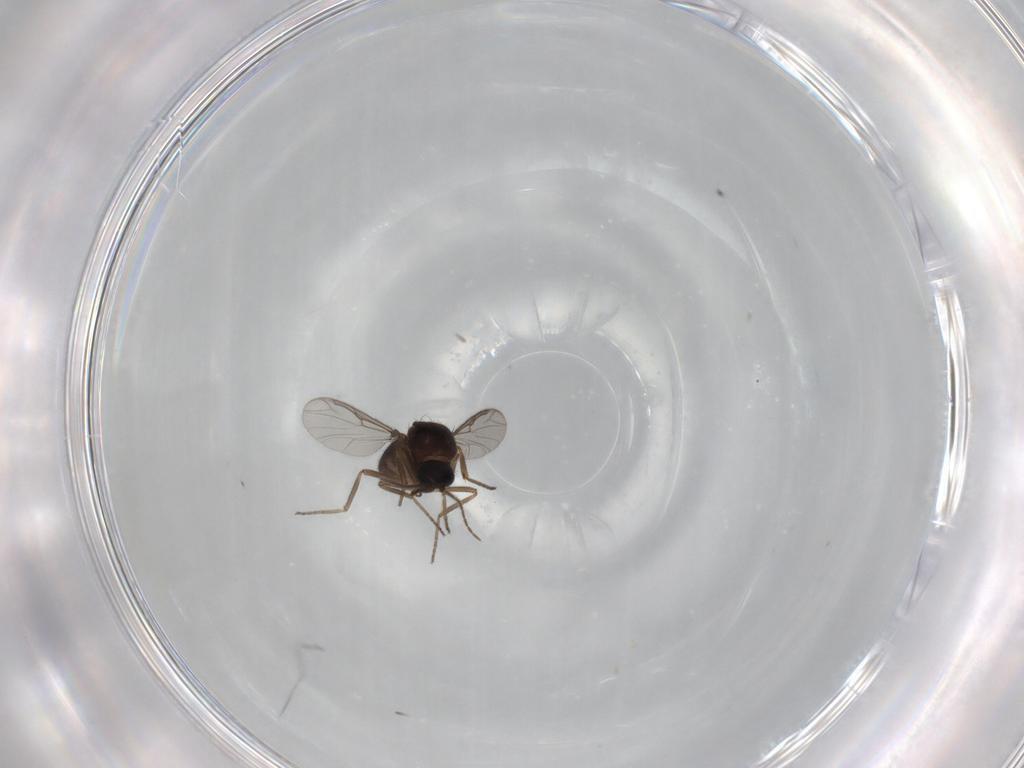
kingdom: Animalia
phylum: Arthropoda
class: Insecta
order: Diptera
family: Ceratopogonidae
